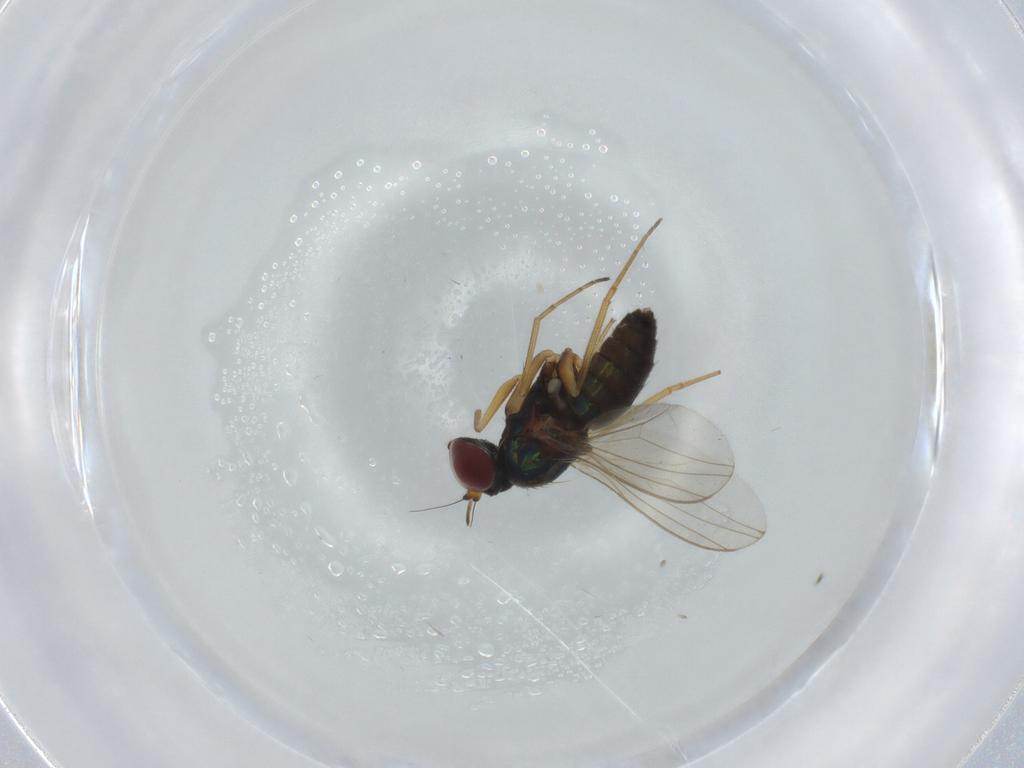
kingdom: Animalia
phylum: Arthropoda
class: Insecta
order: Diptera
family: Dolichopodidae
